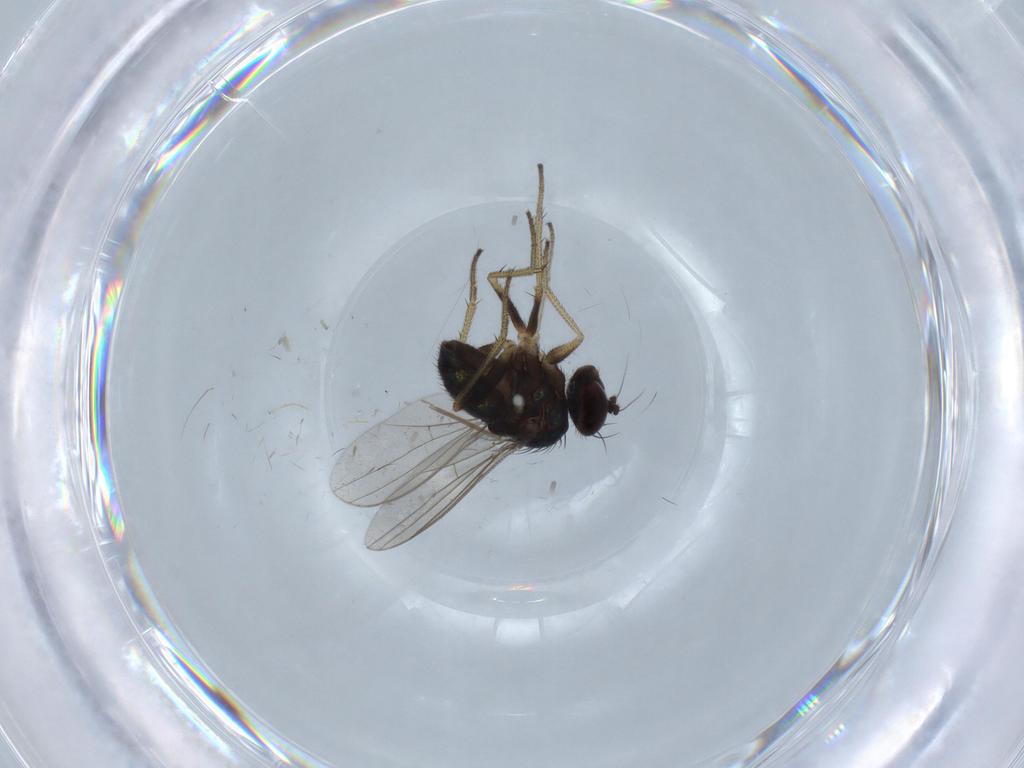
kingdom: Animalia
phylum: Arthropoda
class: Insecta
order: Diptera
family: Chironomidae
